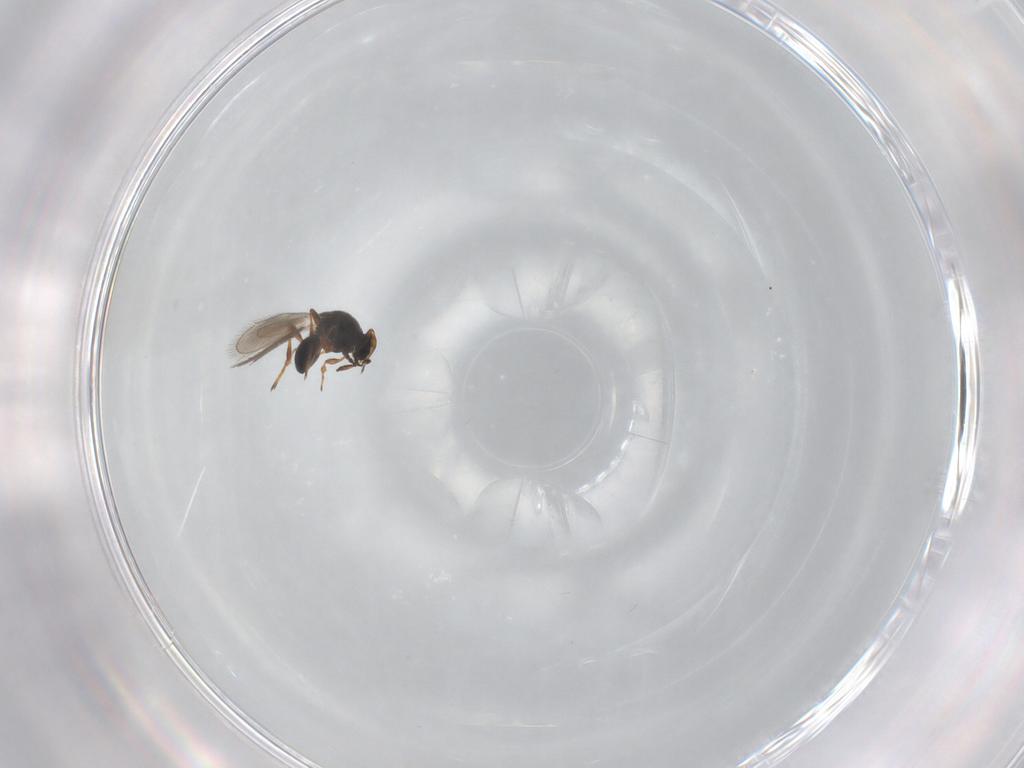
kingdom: Animalia
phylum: Arthropoda
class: Insecta
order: Hymenoptera
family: Platygastridae
